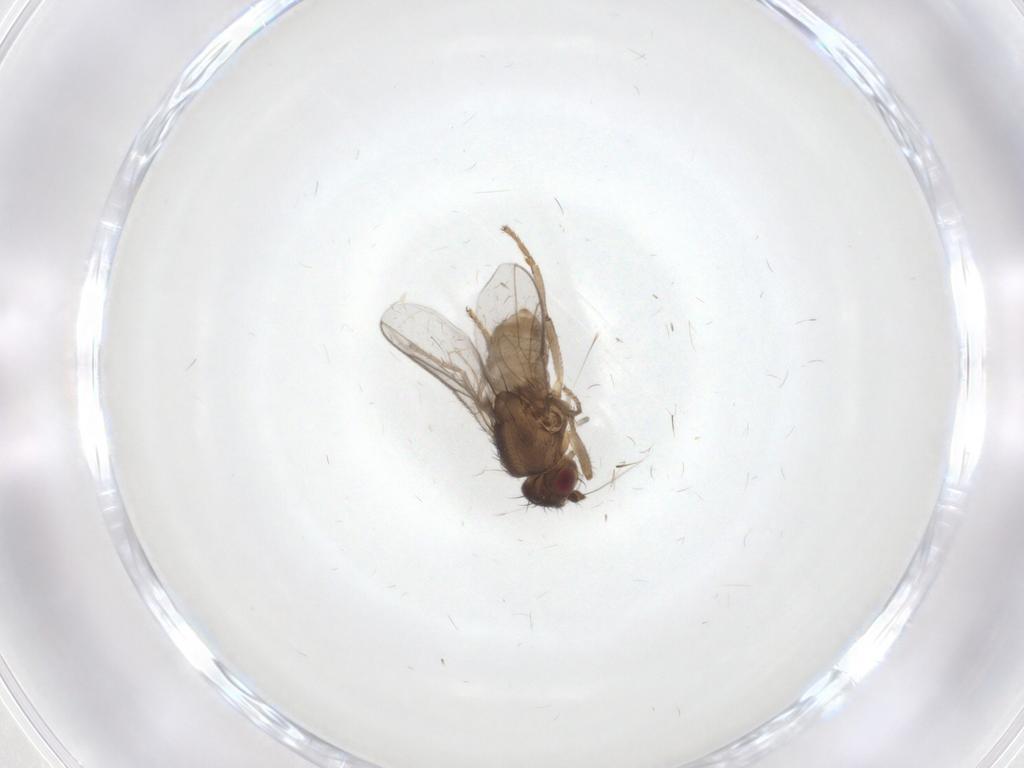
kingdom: Animalia
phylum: Arthropoda
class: Insecta
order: Diptera
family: Sphaeroceridae
